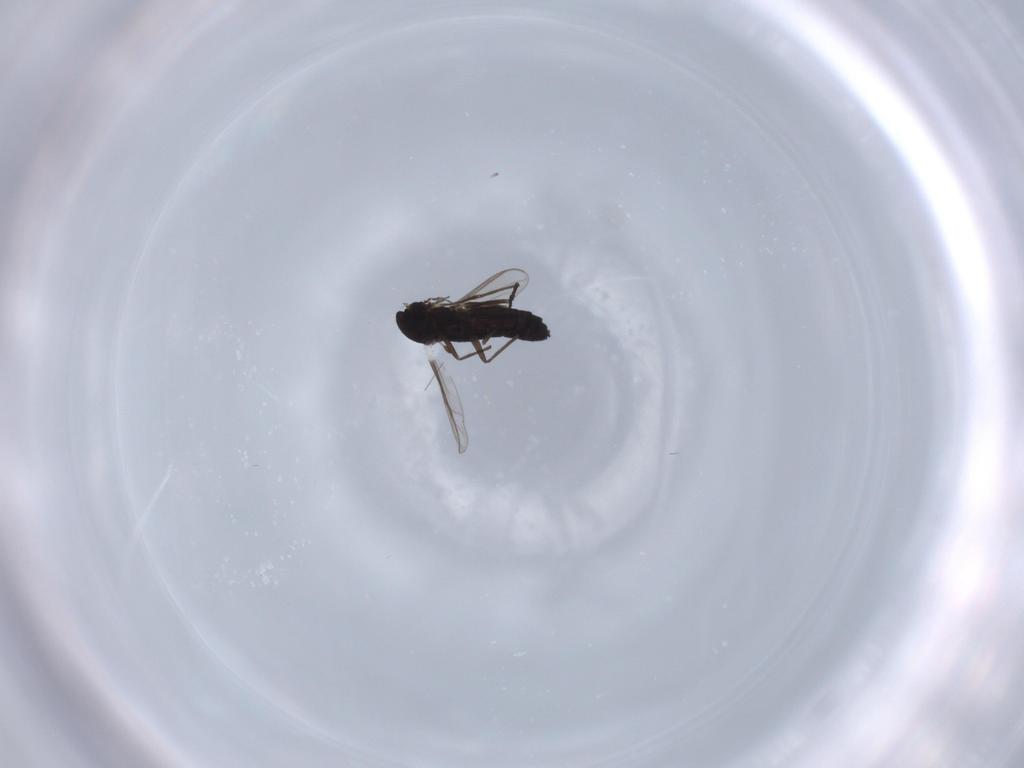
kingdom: Animalia
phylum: Arthropoda
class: Insecta
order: Diptera
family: Chironomidae
